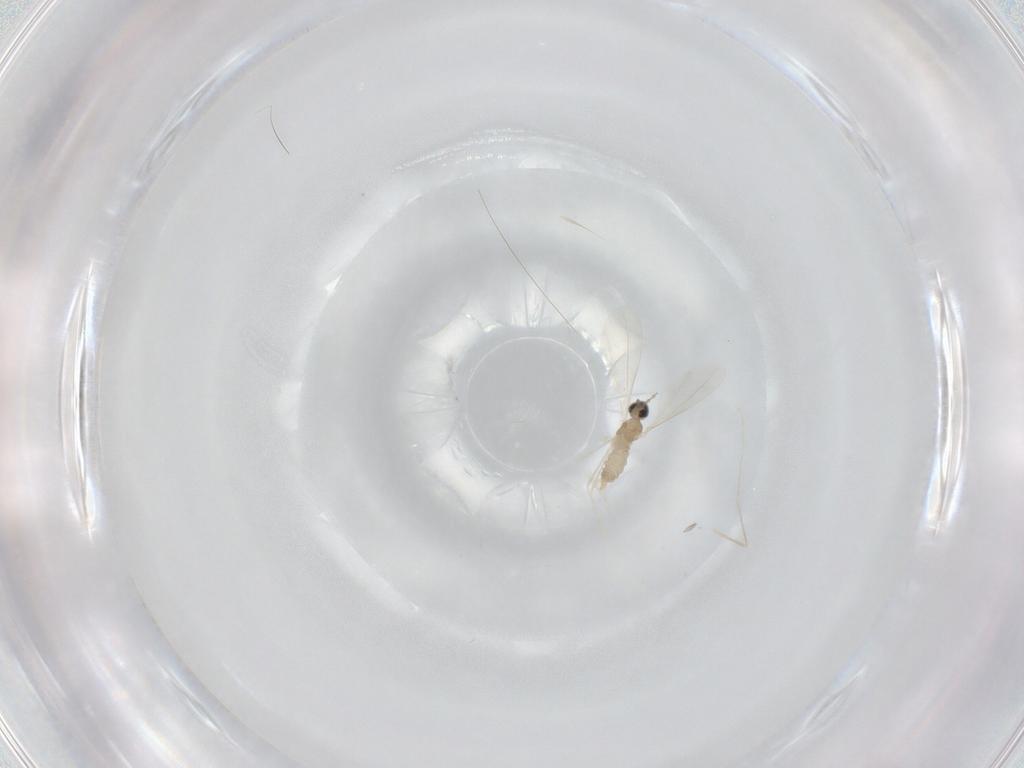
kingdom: Animalia
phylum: Arthropoda
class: Insecta
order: Diptera
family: Cecidomyiidae
